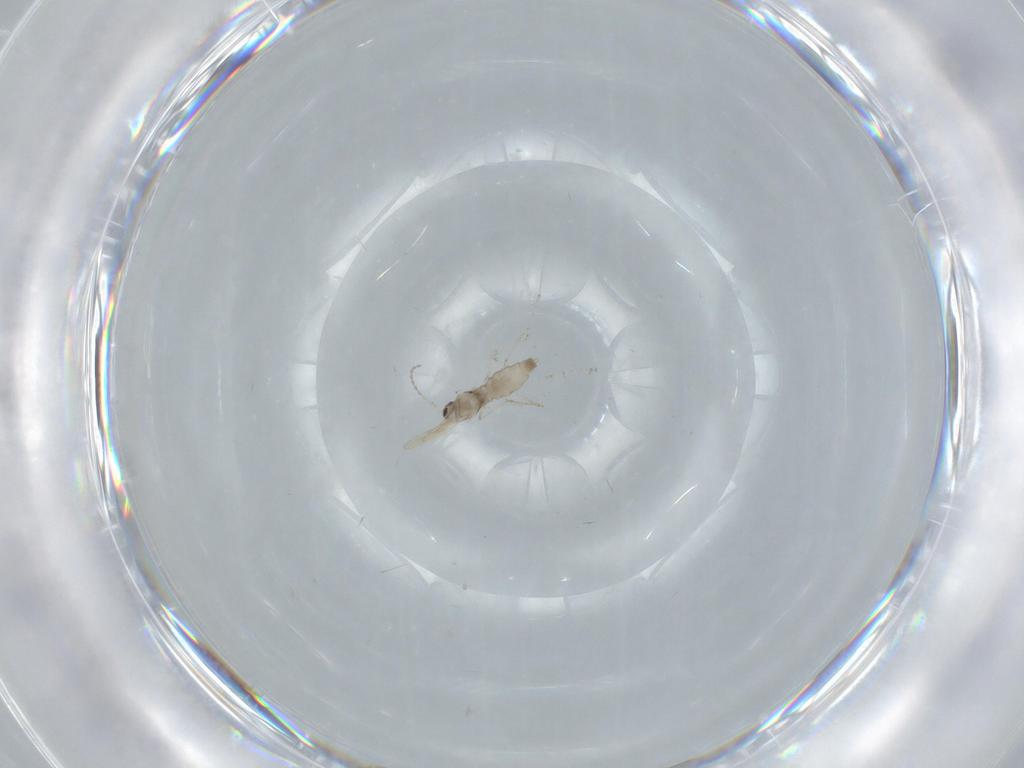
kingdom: Animalia
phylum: Arthropoda
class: Insecta
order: Diptera
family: Cecidomyiidae
